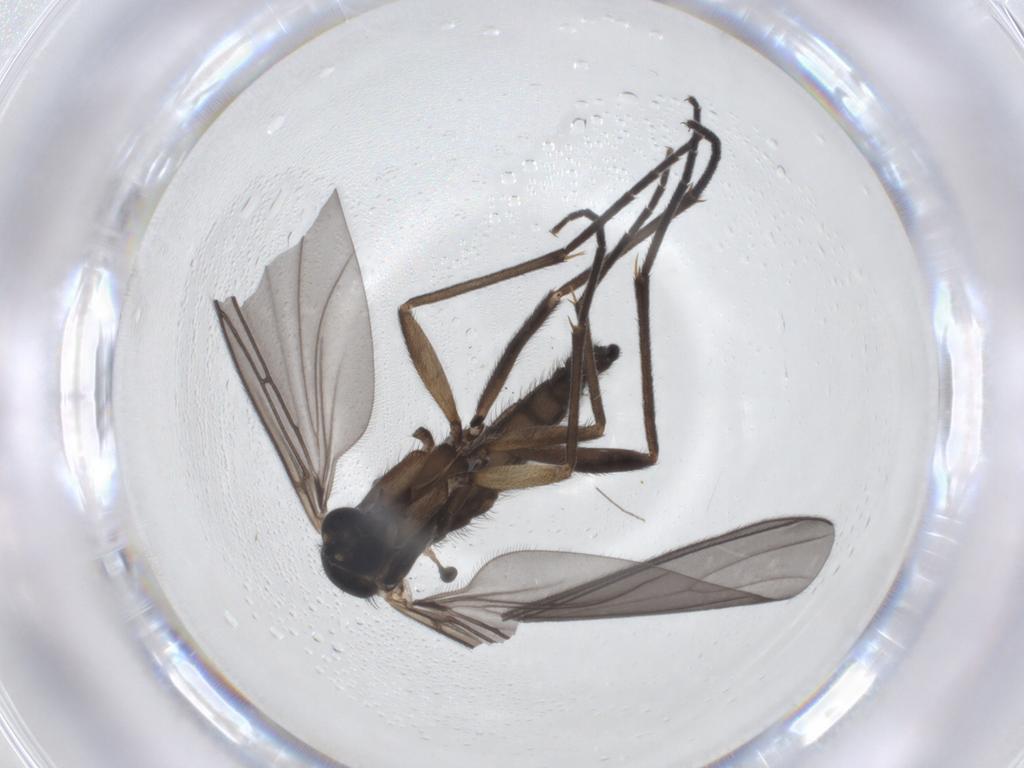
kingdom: Animalia
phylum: Arthropoda
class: Insecta
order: Diptera
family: Sciaridae
